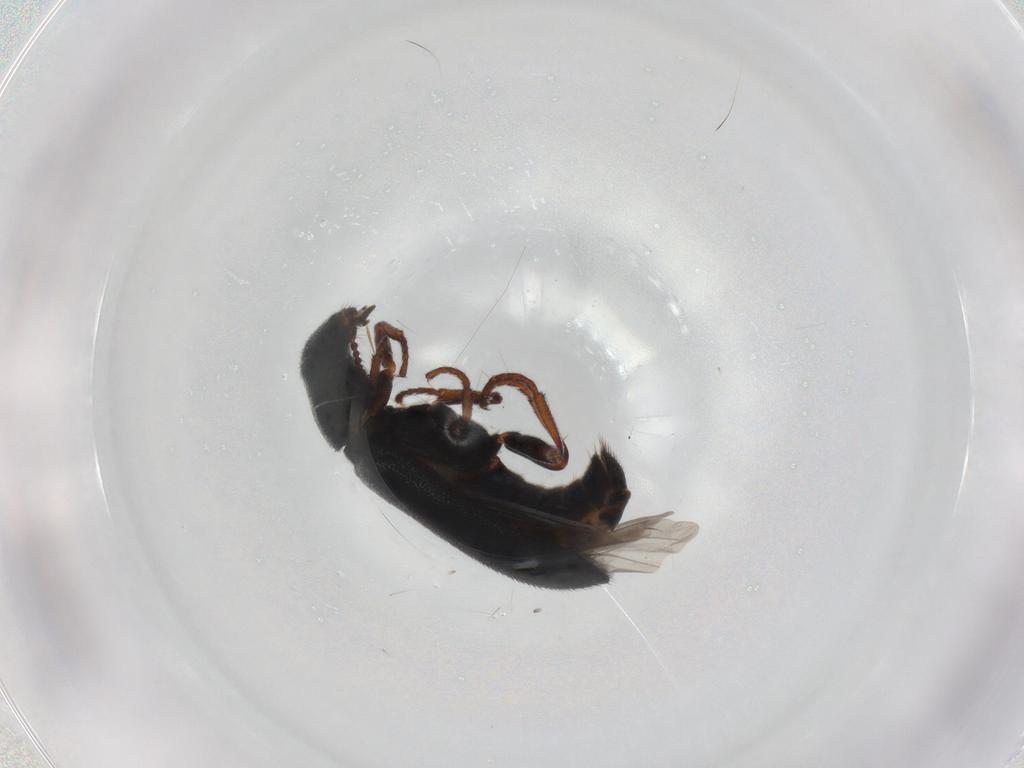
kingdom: Animalia
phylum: Arthropoda
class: Insecta
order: Coleoptera
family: Melyridae
